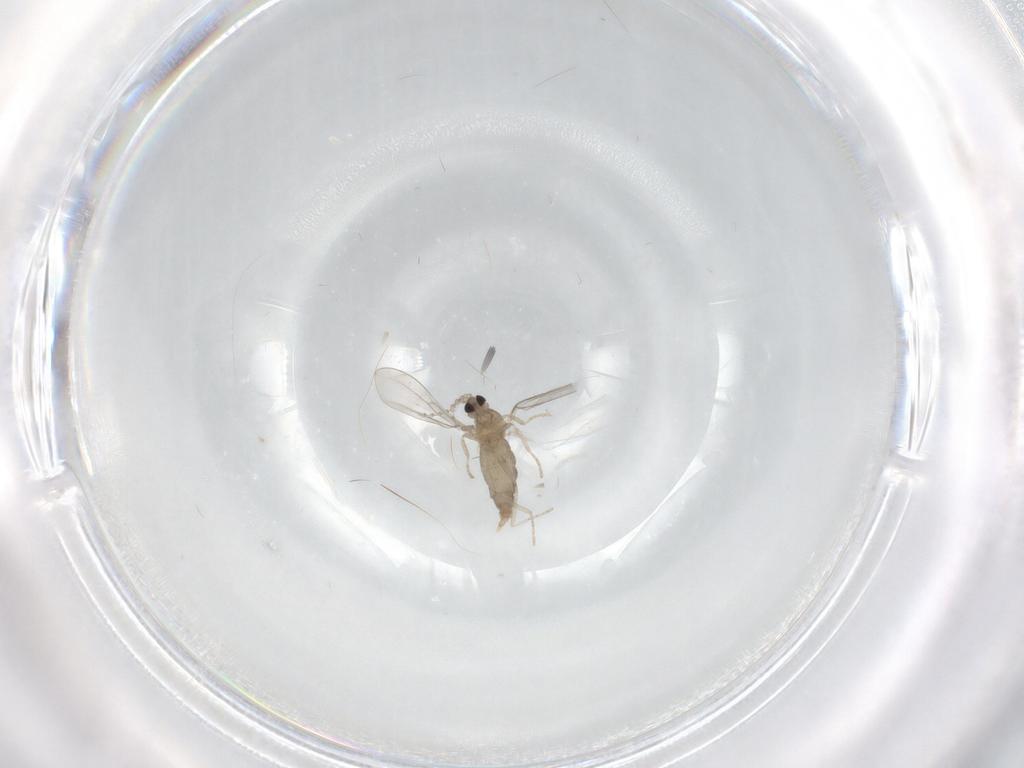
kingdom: Animalia
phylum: Arthropoda
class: Insecta
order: Diptera
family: Cecidomyiidae
